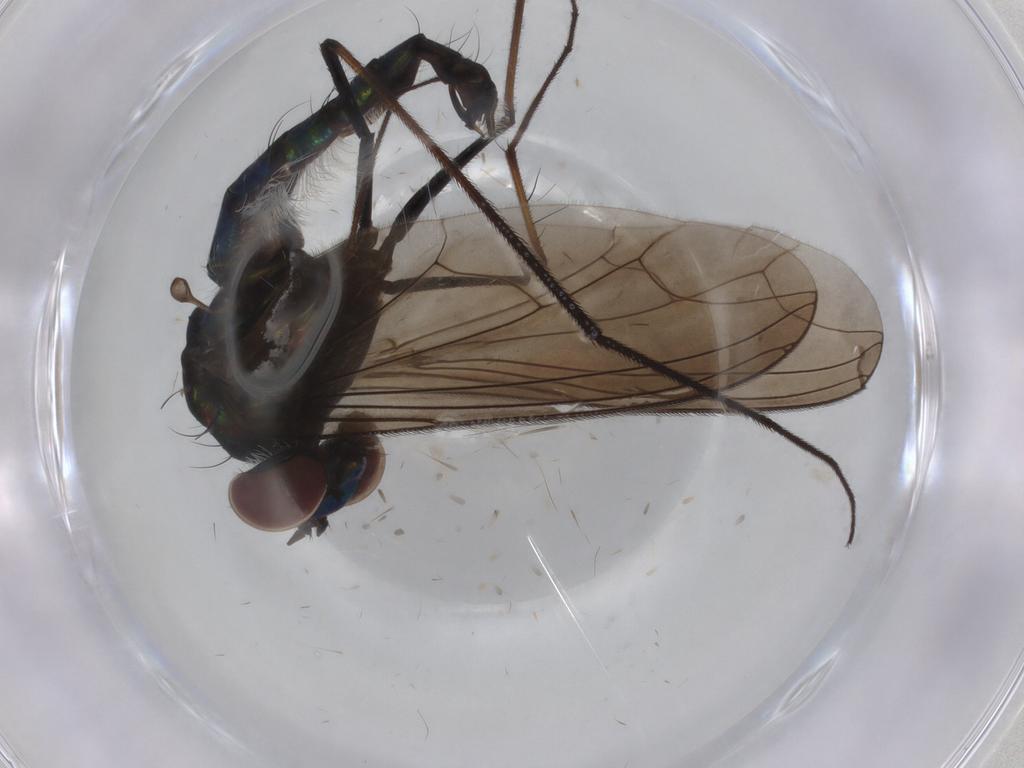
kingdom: Animalia
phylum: Arthropoda
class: Insecta
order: Diptera
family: Dolichopodidae
